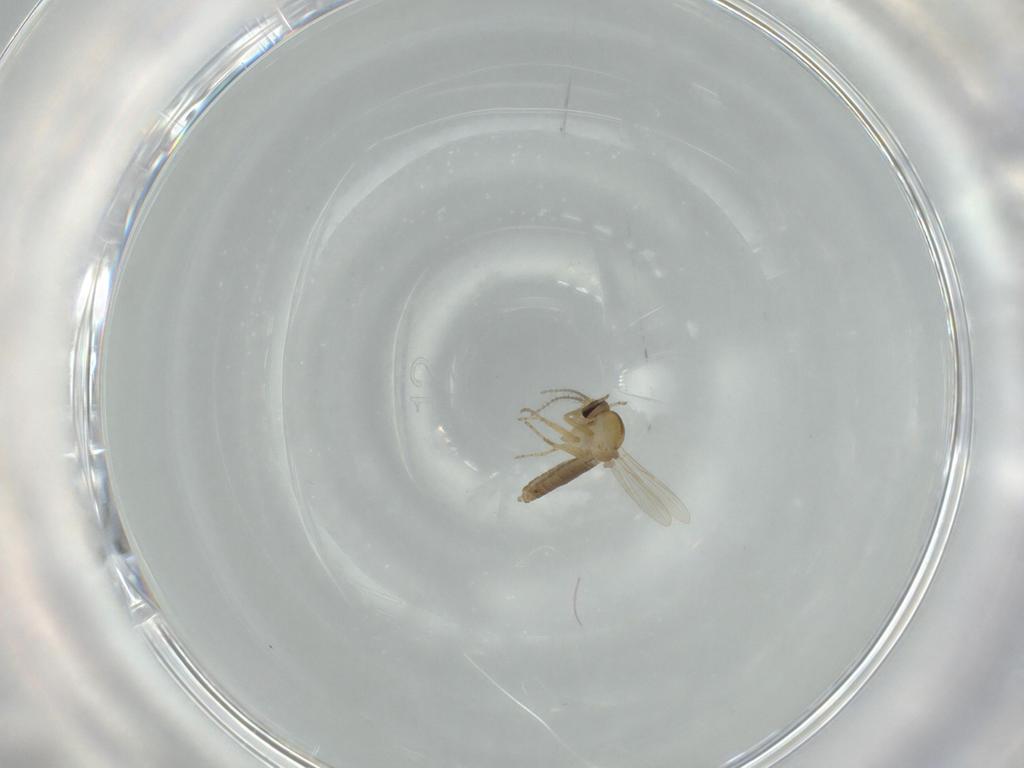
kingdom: Animalia
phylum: Arthropoda
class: Insecta
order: Diptera
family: Ceratopogonidae
